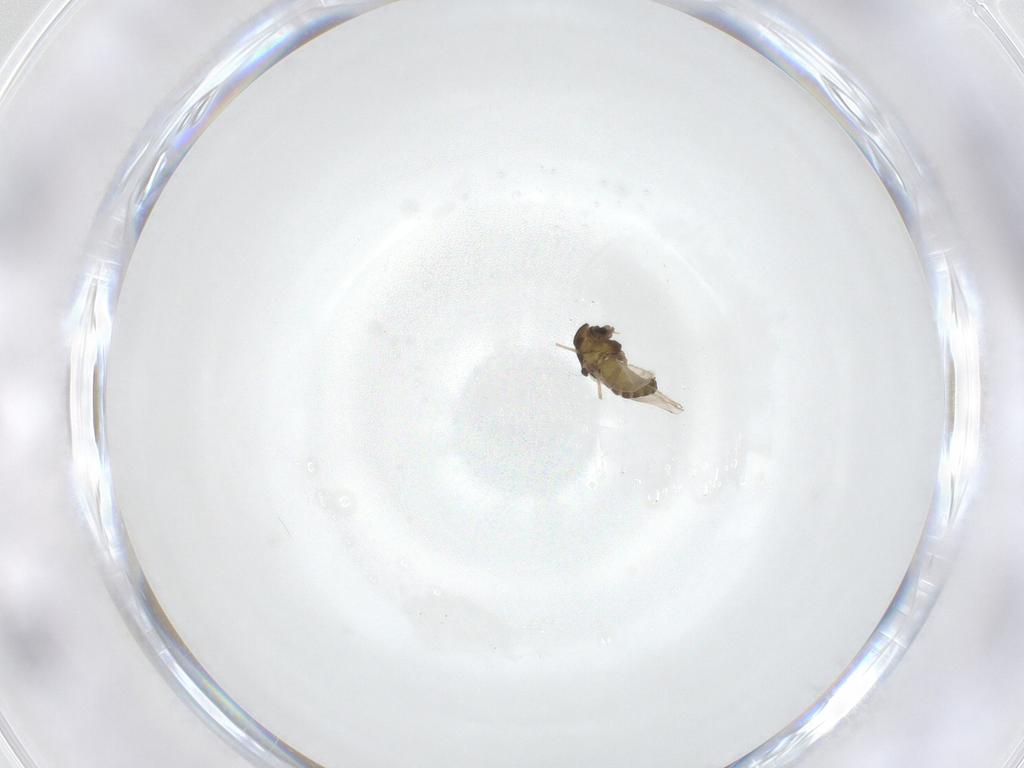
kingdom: Animalia
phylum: Arthropoda
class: Insecta
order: Diptera
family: Chironomidae
